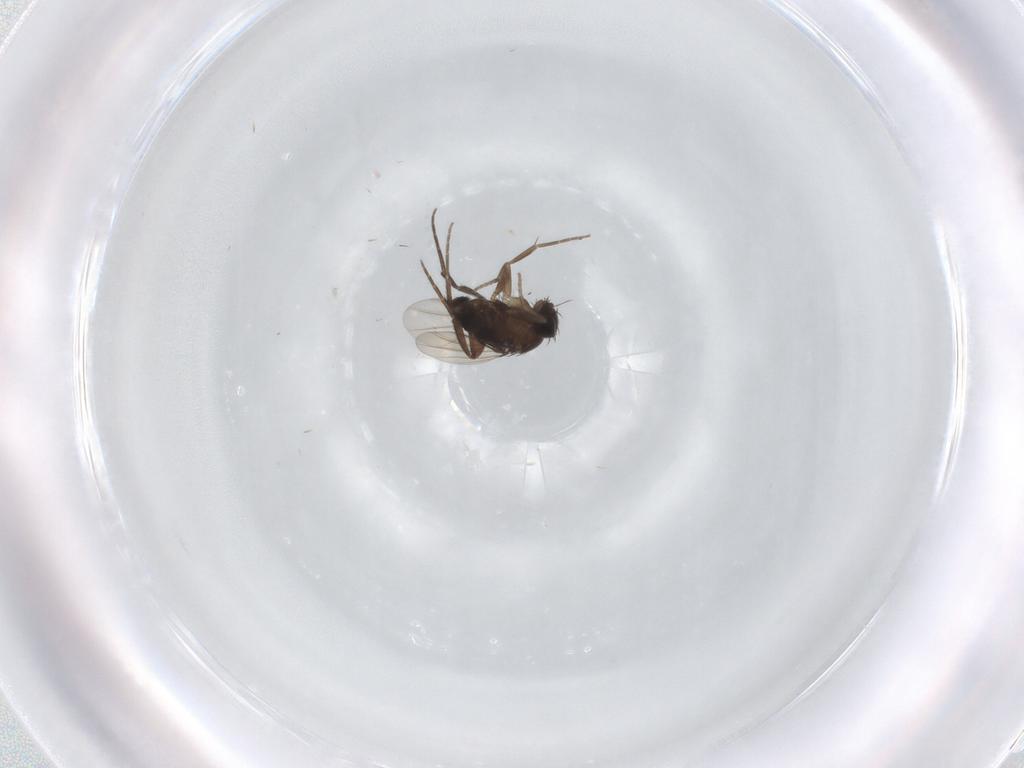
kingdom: Animalia
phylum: Arthropoda
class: Insecta
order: Diptera
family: Phoridae
